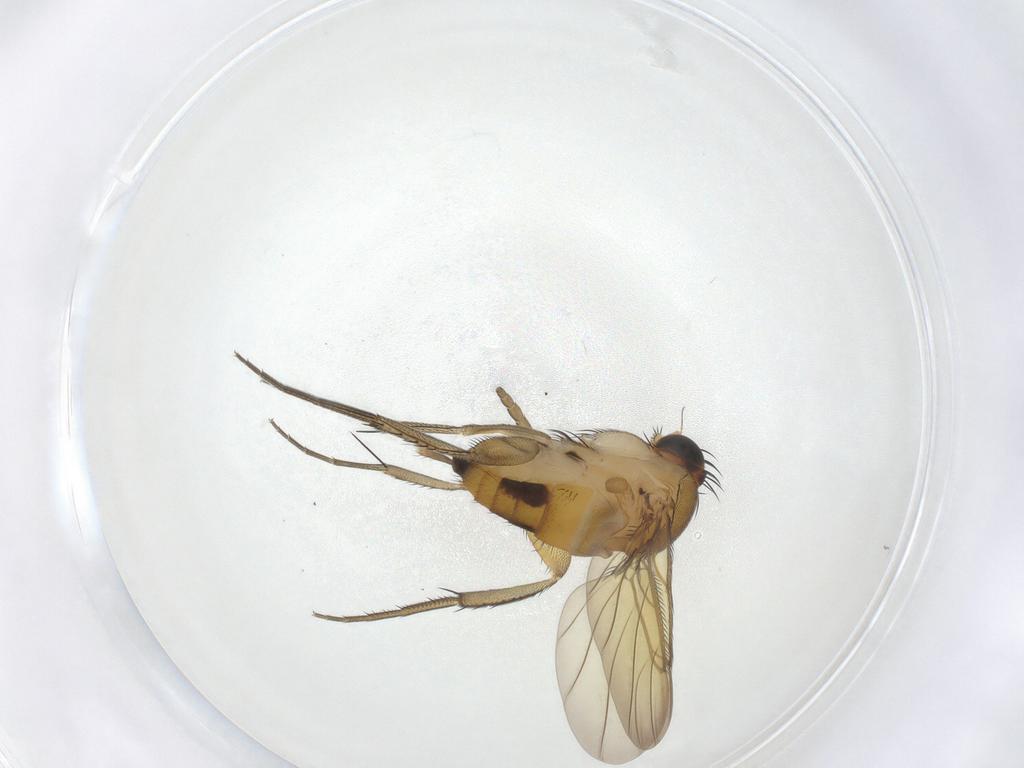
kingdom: Animalia
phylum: Arthropoda
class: Insecta
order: Diptera
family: Phoridae
